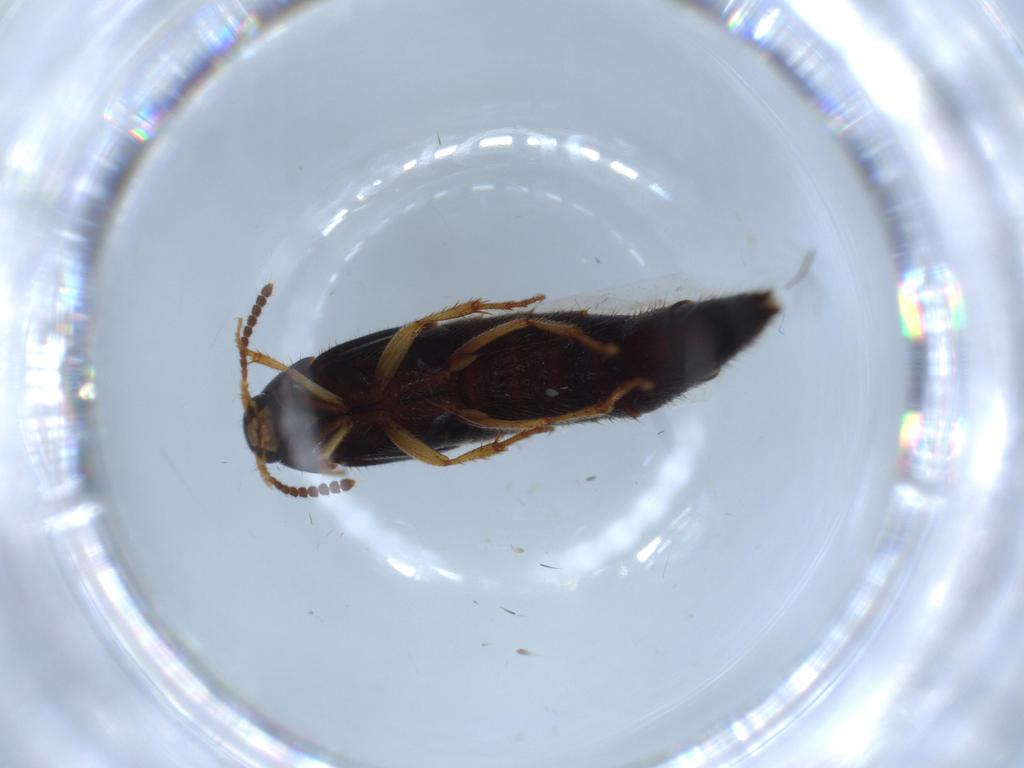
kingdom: Animalia
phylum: Arthropoda
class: Insecta
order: Coleoptera
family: Staphylinidae
